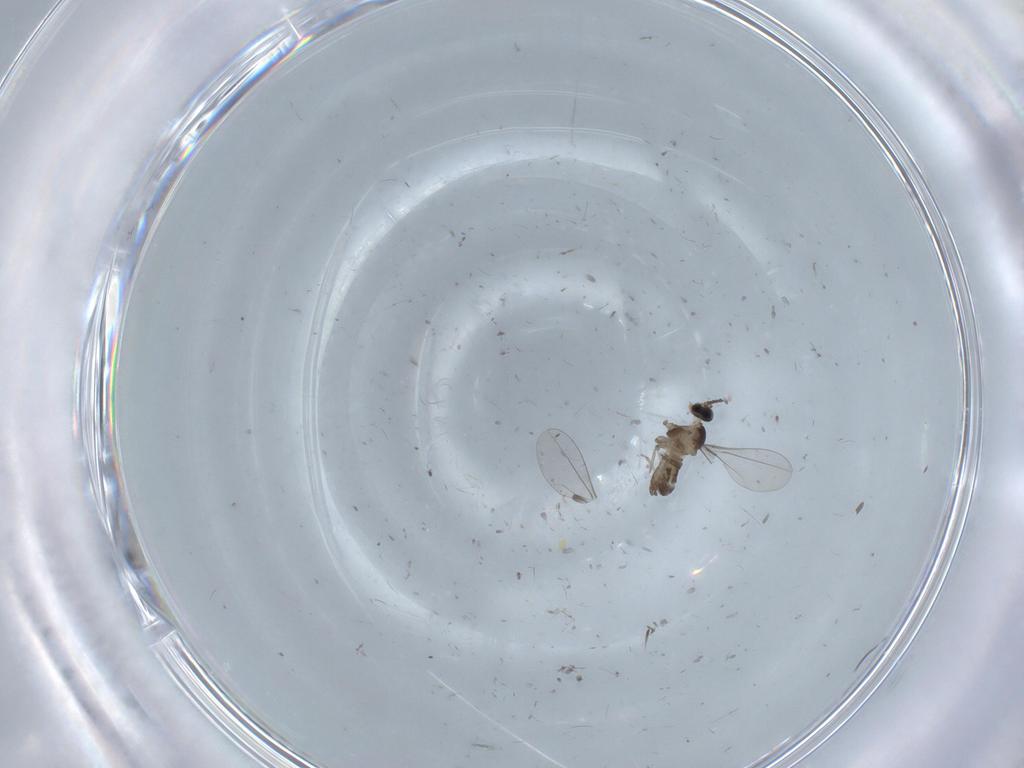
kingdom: Animalia
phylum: Arthropoda
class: Insecta
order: Diptera
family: Cecidomyiidae
